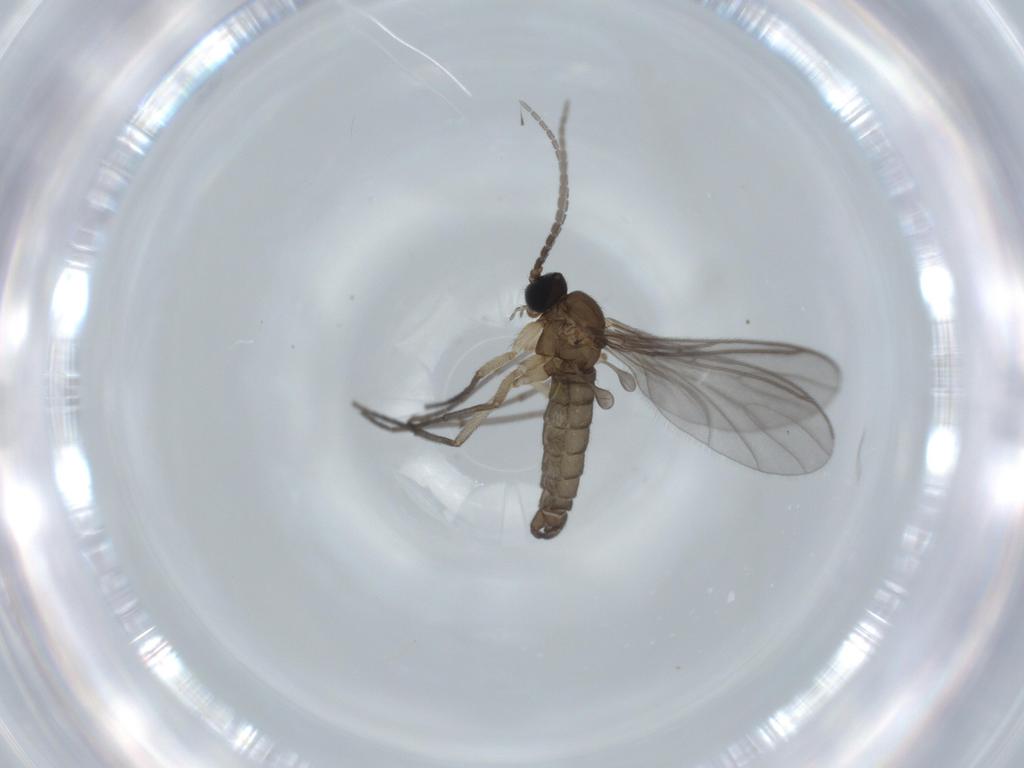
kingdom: Animalia
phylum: Arthropoda
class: Insecta
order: Diptera
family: Sciaridae
